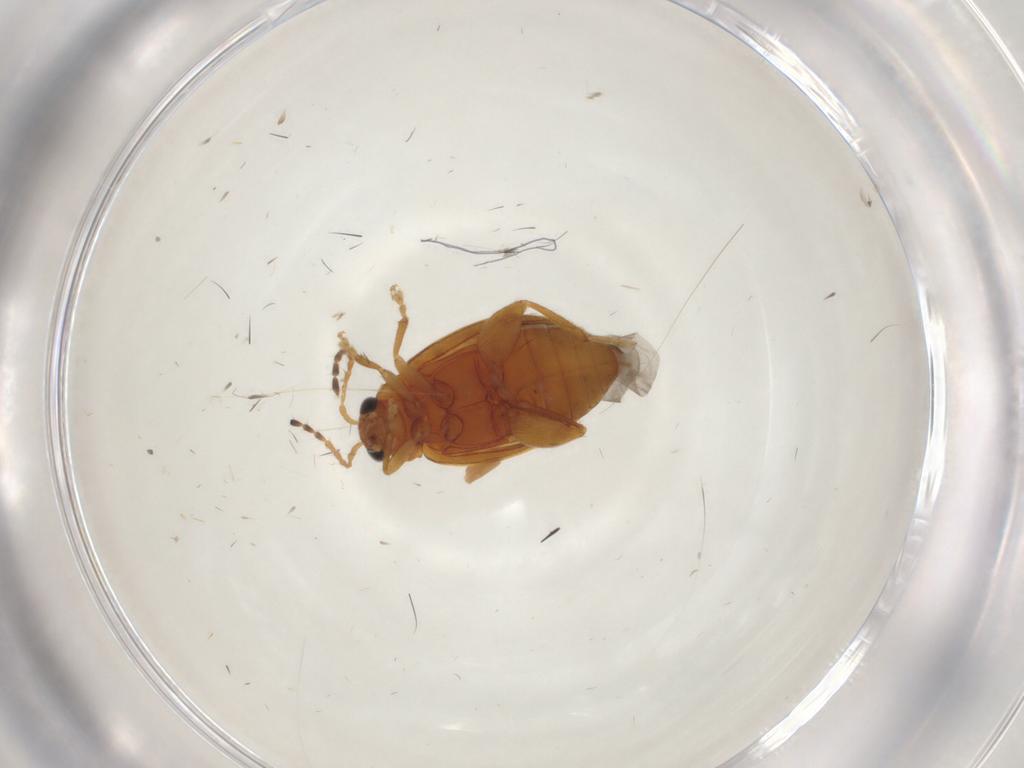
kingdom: Animalia
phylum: Arthropoda
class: Insecta
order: Coleoptera
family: Chrysomelidae
